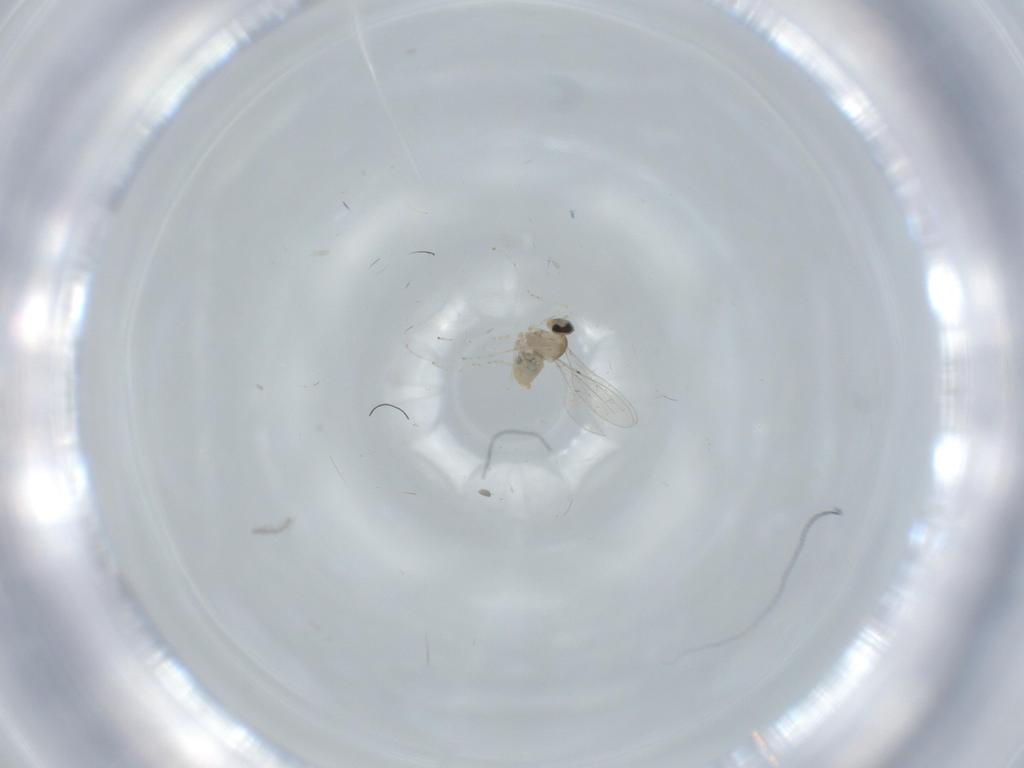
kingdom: Animalia
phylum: Arthropoda
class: Insecta
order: Diptera
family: Cecidomyiidae
